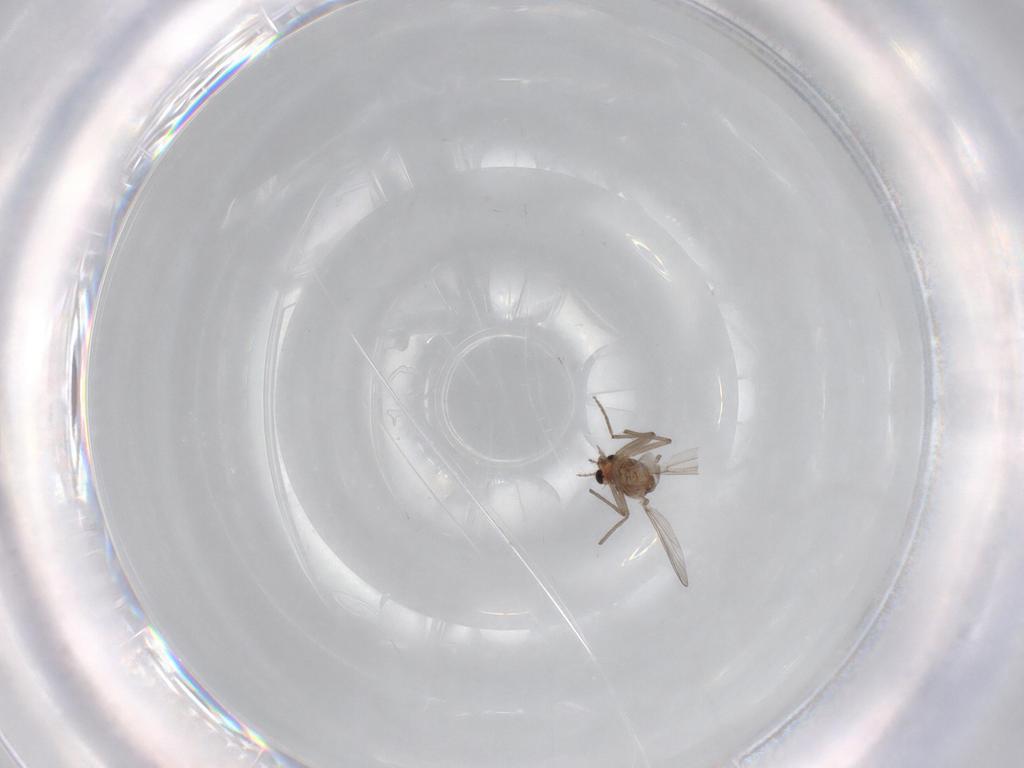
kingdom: Animalia
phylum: Arthropoda
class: Insecta
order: Diptera
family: Chironomidae
